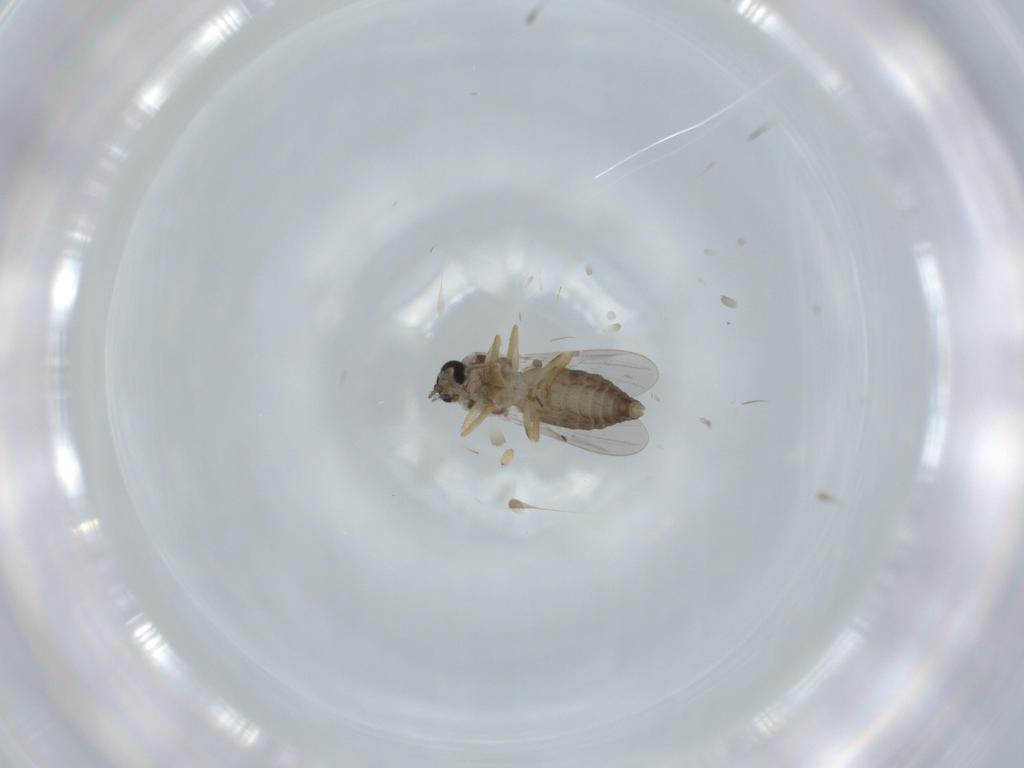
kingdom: Animalia
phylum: Arthropoda
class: Insecta
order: Diptera
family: Ceratopogonidae
